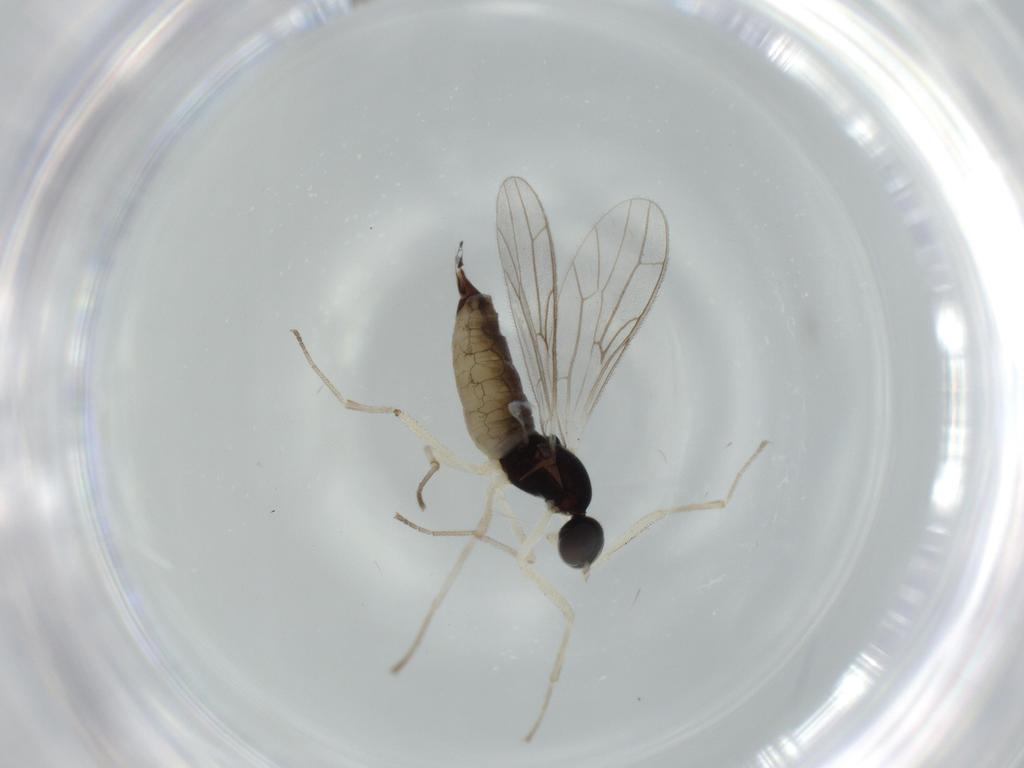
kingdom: Animalia
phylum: Arthropoda
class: Insecta
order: Diptera
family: Empididae
